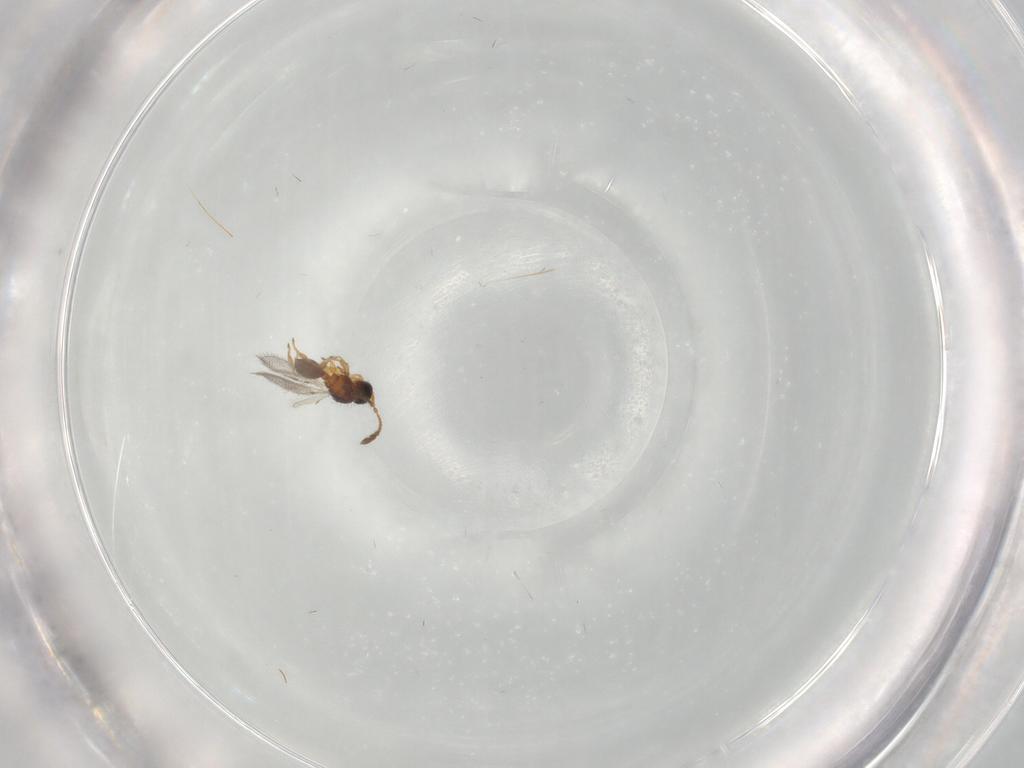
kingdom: Animalia
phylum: Arthropoda
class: Insecta
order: Hymenoptera
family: Diapriidae
